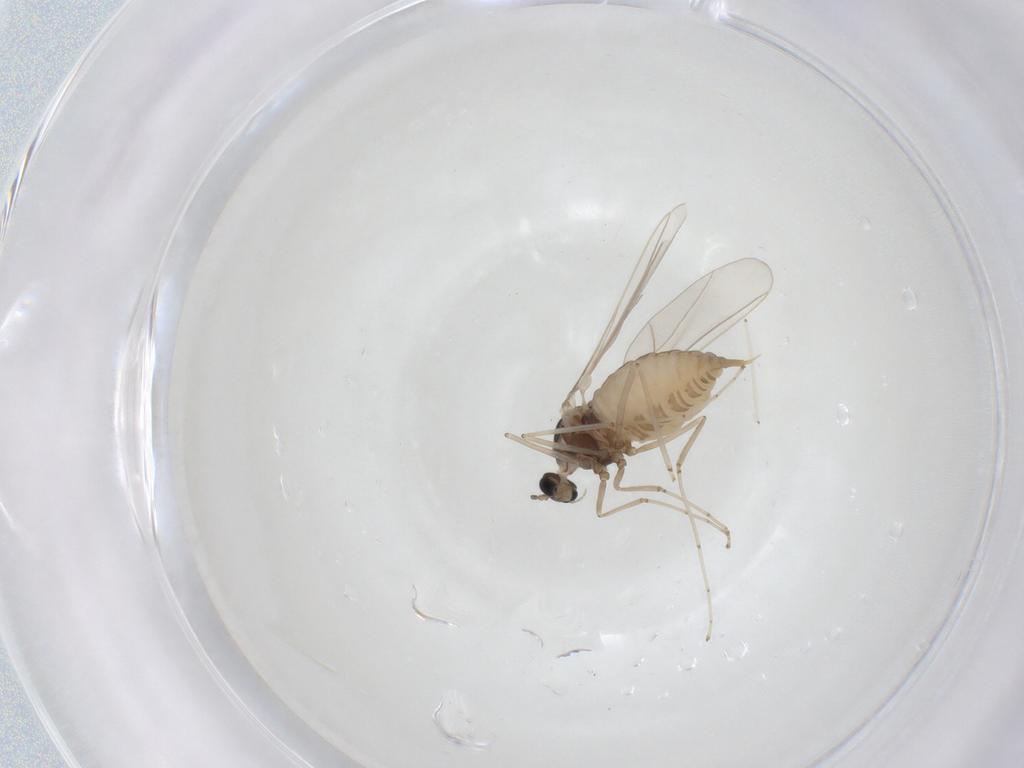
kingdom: Animalia
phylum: Arthropoda
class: Insecta
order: Diptera
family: Cecidomyiidae
